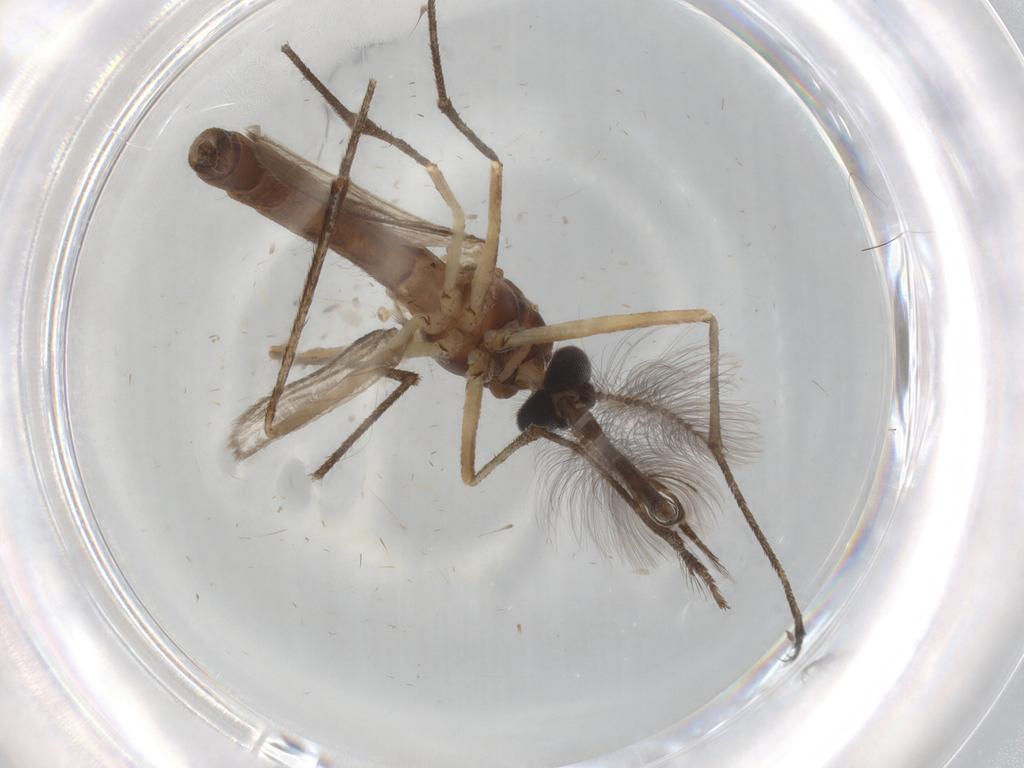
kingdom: Animalia
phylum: Arthropoda
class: Insecta
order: Diptera
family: Culicidae
